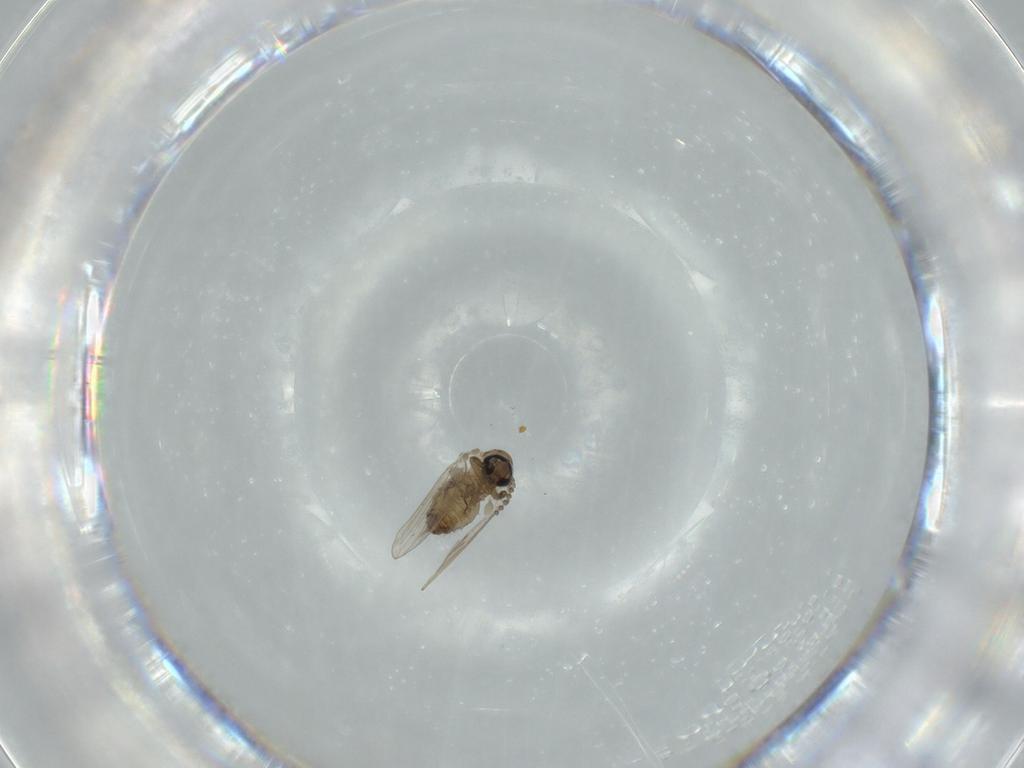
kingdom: Animalia
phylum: Arthropoda
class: Insecta
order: Diptera
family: Psychodidae
